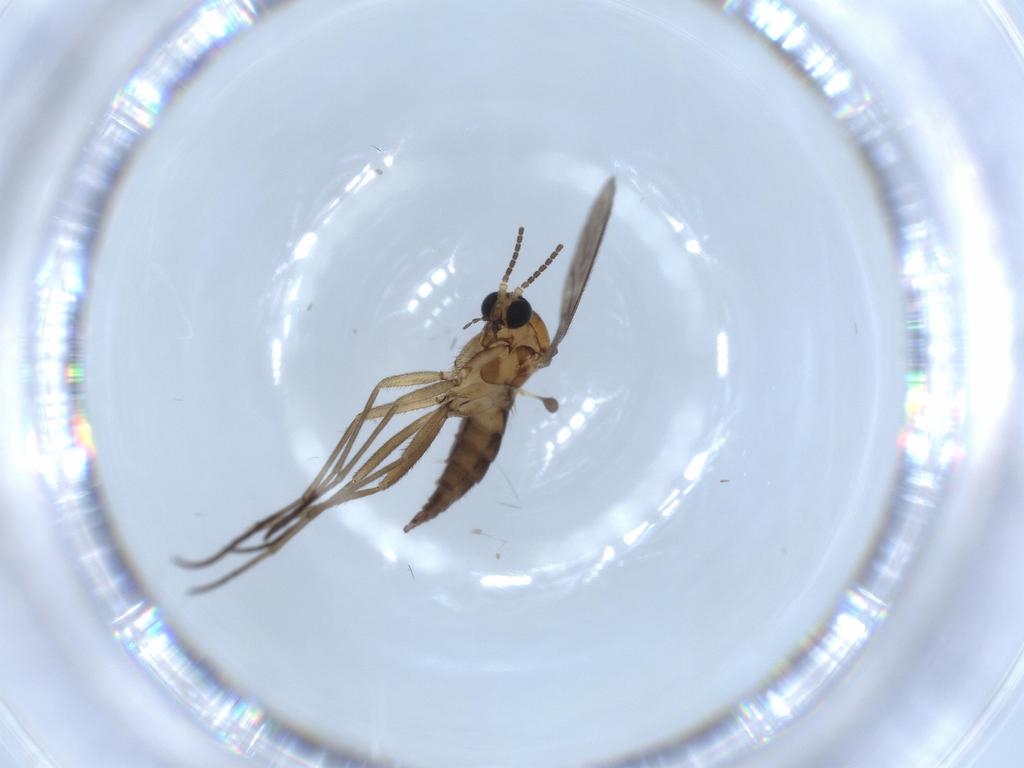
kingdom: Animalia
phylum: Arthropoda
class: Insecta
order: Diptera
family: Sciaridae
